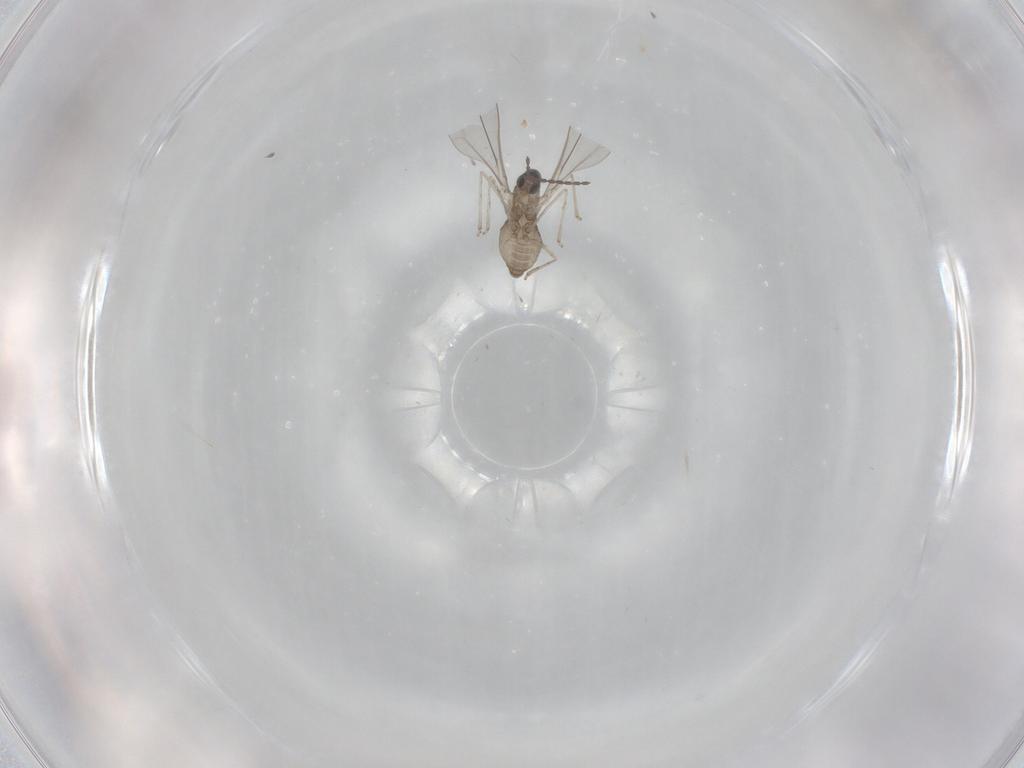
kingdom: Animalia
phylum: Arthropoda
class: Insecta
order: Diptera
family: Cecidomyiidae
